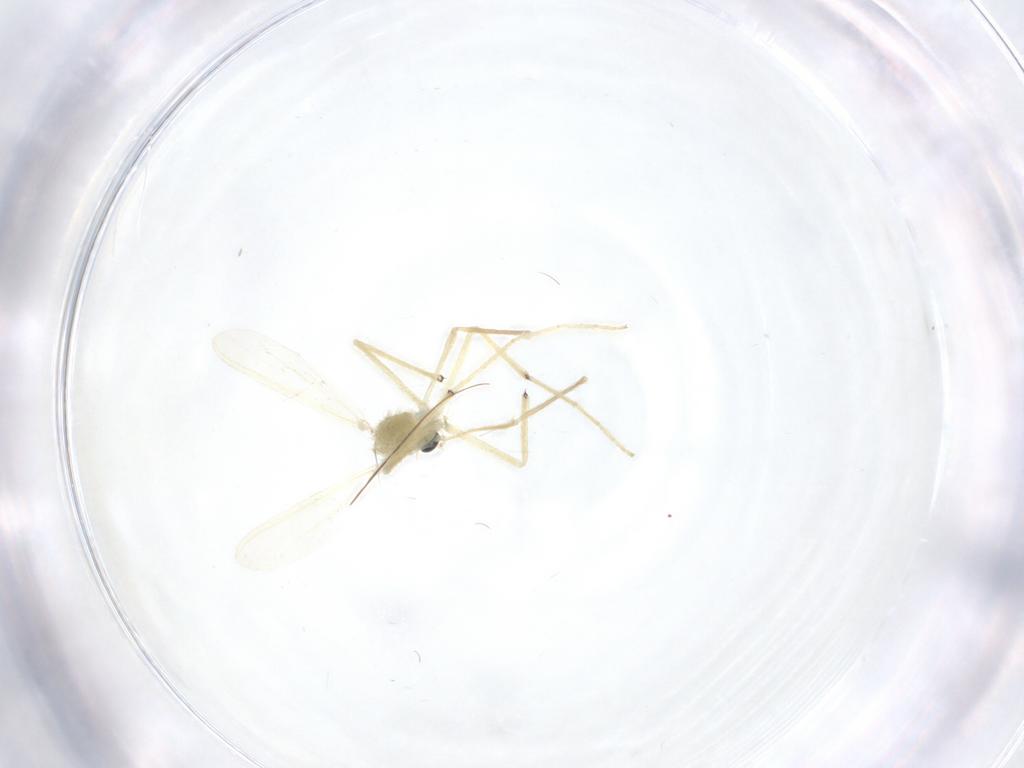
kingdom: Animalia
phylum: Arthropoda
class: Insecta
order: Diptera
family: Chironomidae
